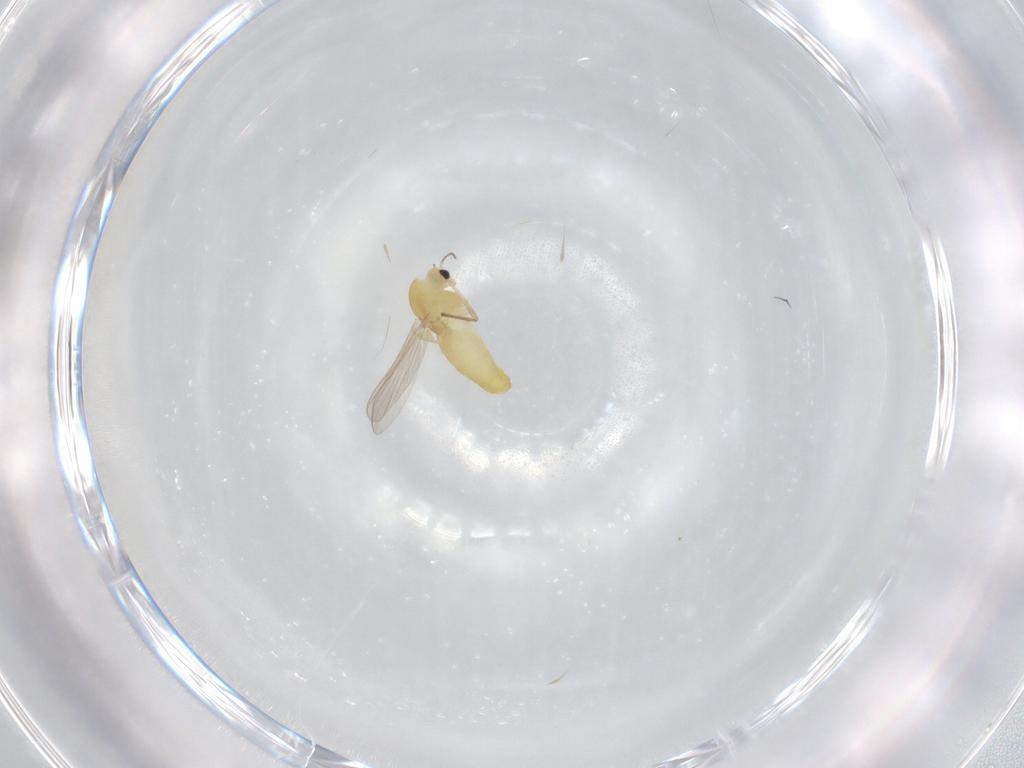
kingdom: Animalia
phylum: Arthropoda
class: Insecta
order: Diptera
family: Chironomidae
